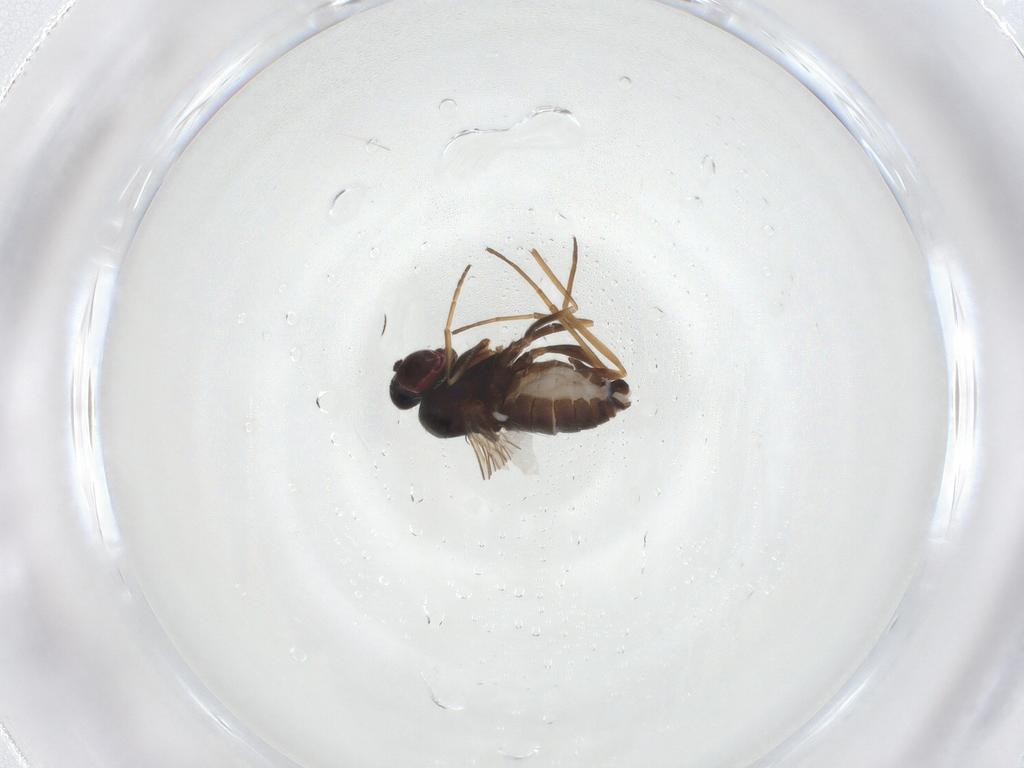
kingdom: Animalia
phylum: Arthropoda
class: Insecta
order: Diptera
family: Dolichopodidae
